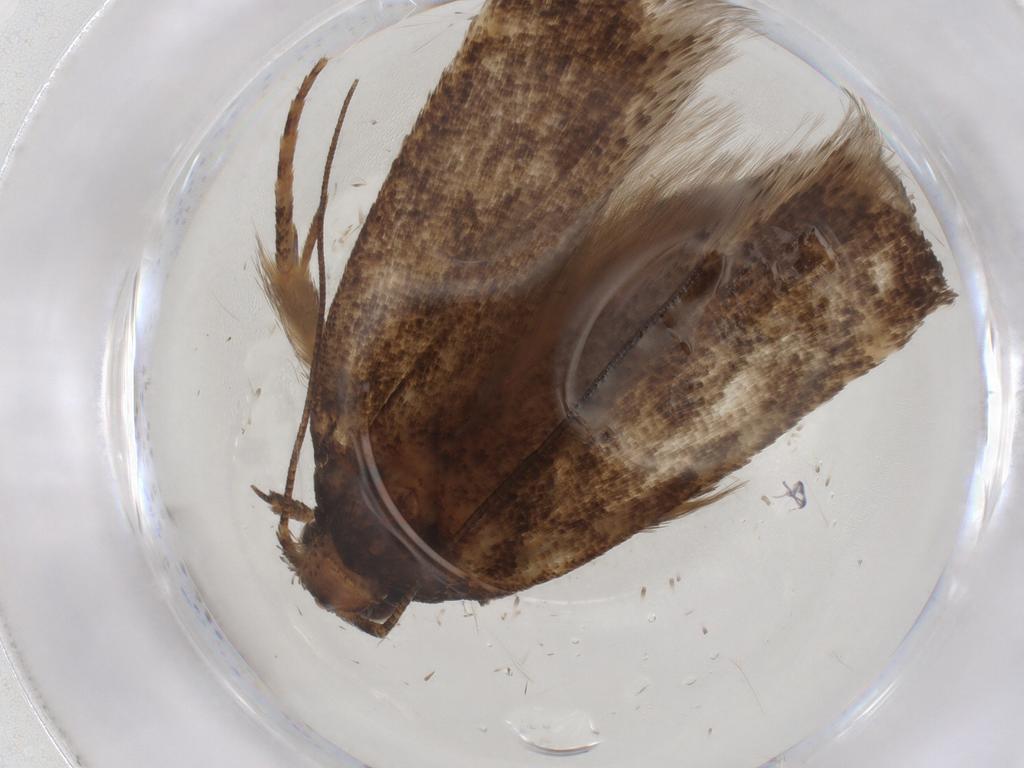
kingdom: Animalia
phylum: Arthropoda
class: Insecta
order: Lepidoptera
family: Gelechiidae
